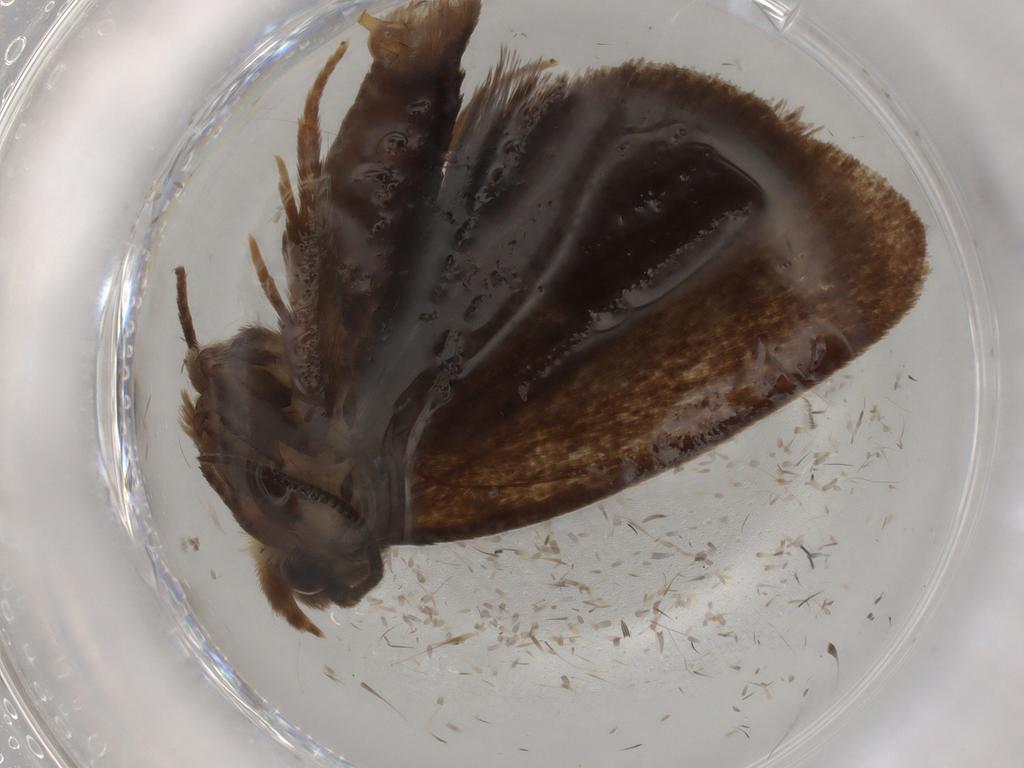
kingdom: Animalia
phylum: Arthropoda
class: Insecta
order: Lepidoptera
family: Tineidae
